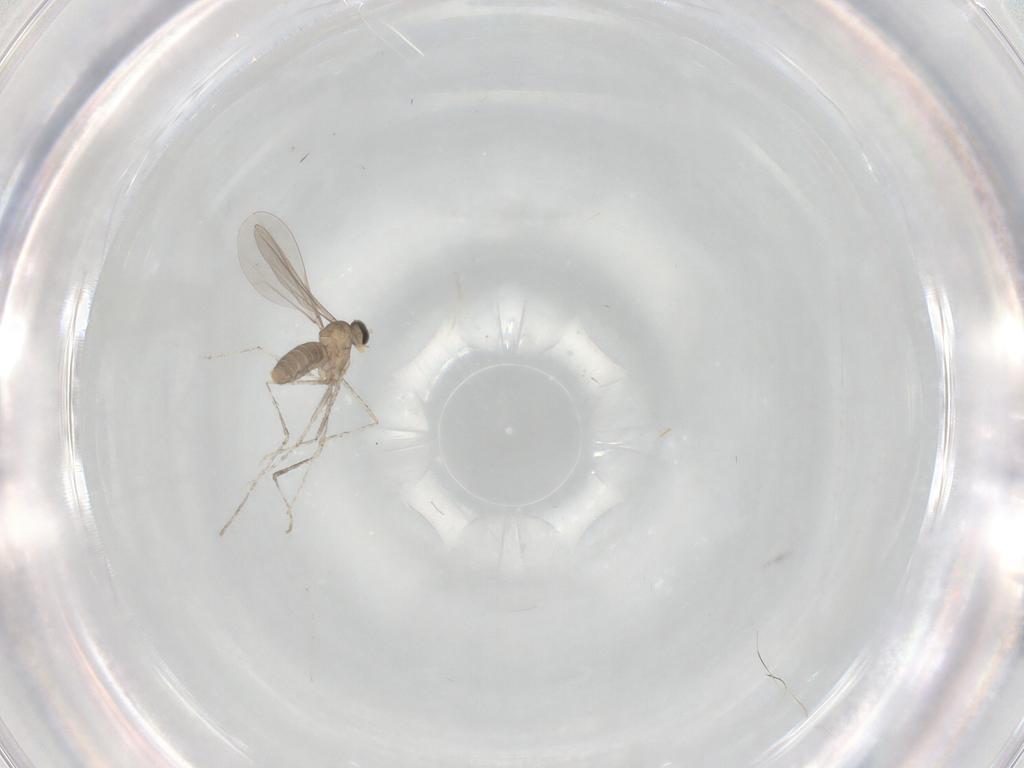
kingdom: Animalia
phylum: Arthropoda
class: Insecta
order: Diptera
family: Cecidomyiidae
